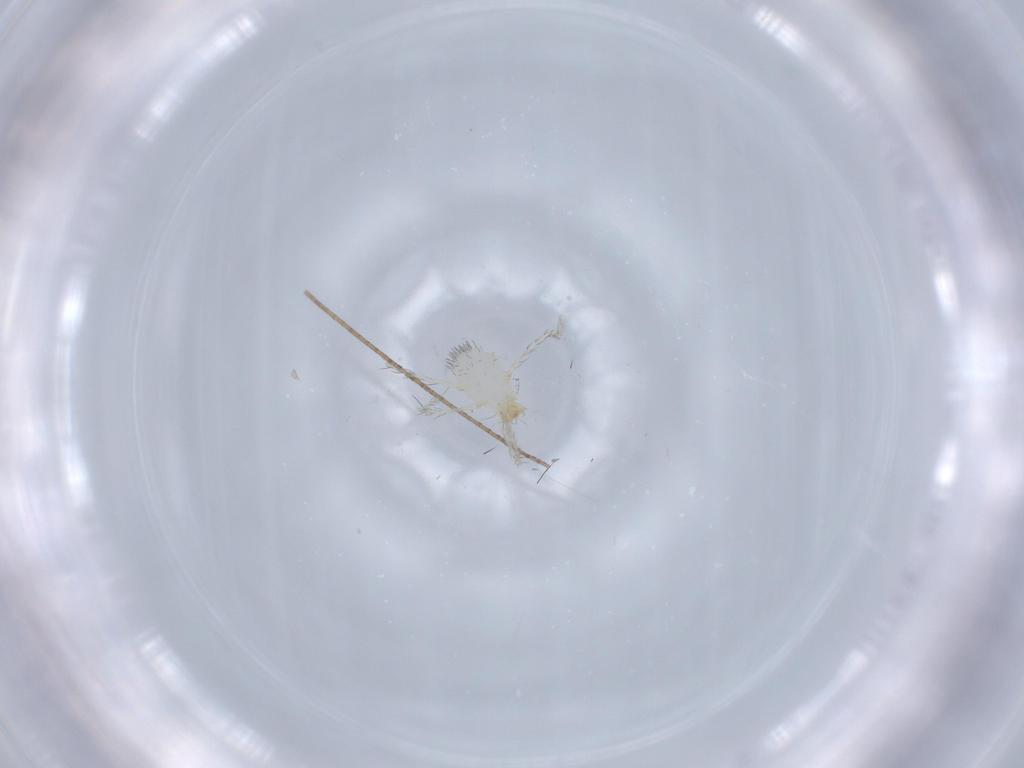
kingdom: Animalia
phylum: Arthropoda
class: Arachnida
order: Trombidiformes
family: Erythraeidae
